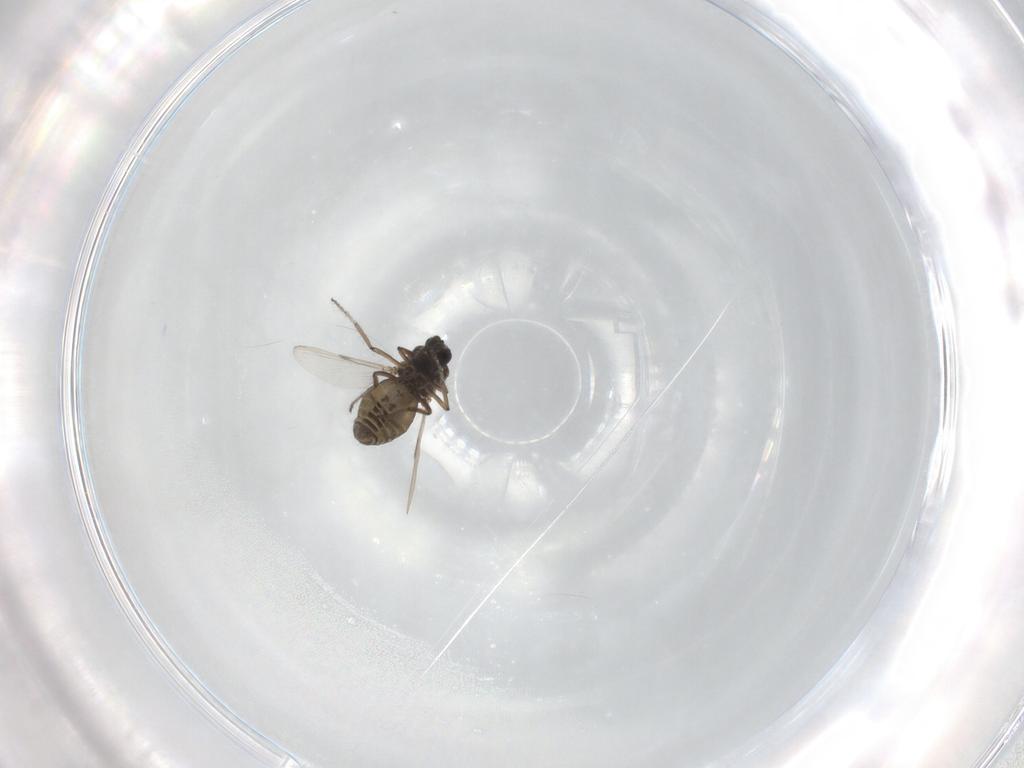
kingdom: Animalia
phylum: Arthropoda
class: Insecta
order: Diptera
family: Ceratopogonidae
